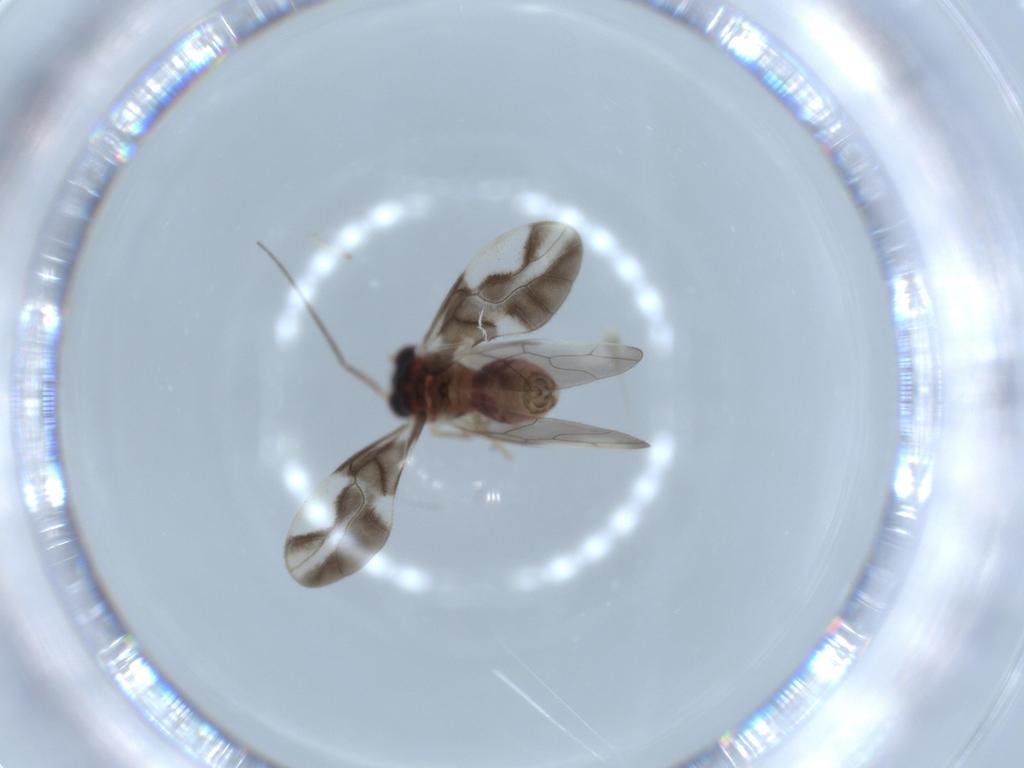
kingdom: Animalia
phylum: Arthropoda
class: Insecta
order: Psocodea
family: Caeciliusidae
